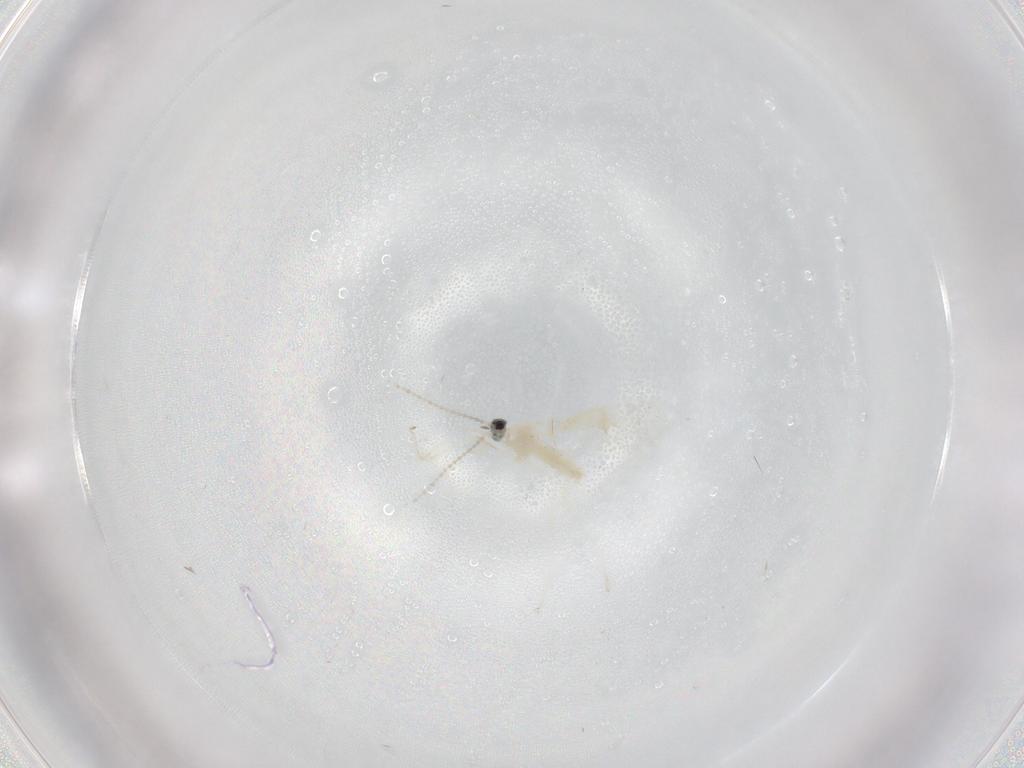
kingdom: Animalia
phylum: Arthropoda
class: Insecta
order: Diptera
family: Cecidomyiidae
